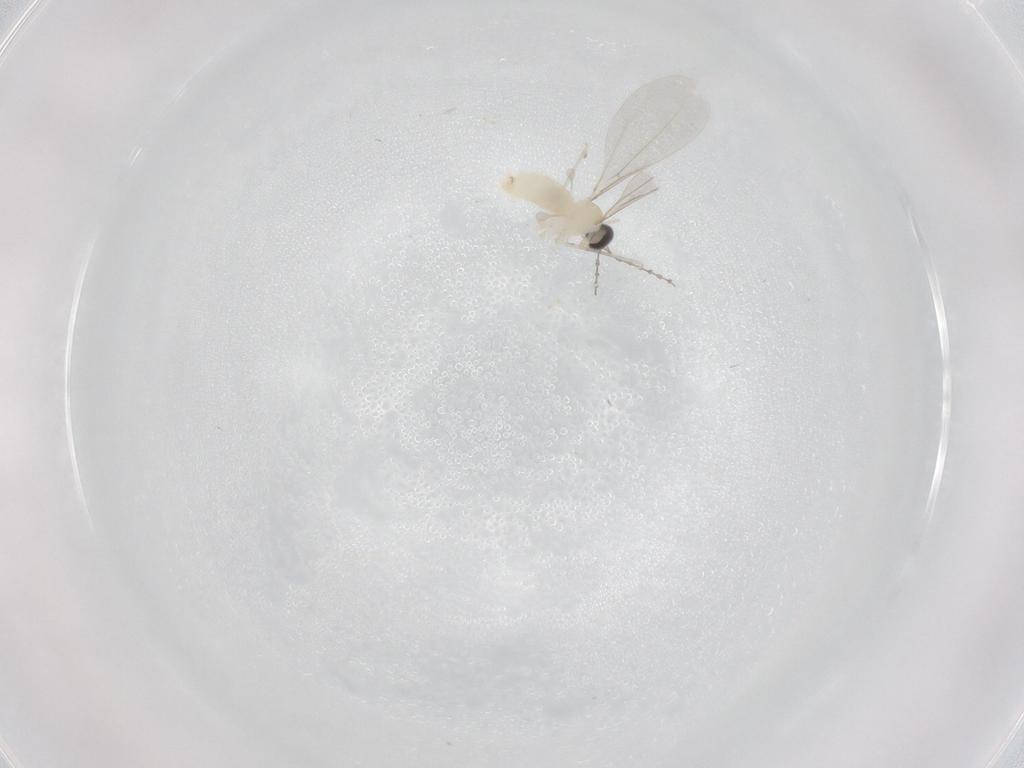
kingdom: Animalia
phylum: Arthropoda
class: Insecta
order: Diptera
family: Cecidomyiidae
